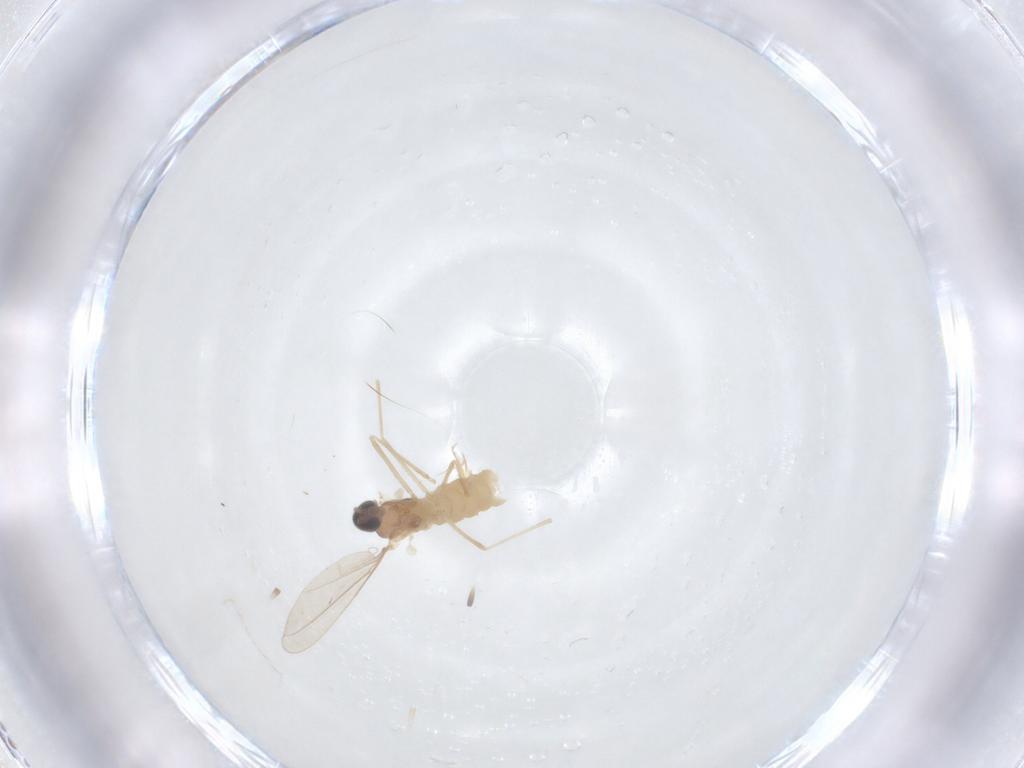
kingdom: Animalia
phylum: Arthropoda
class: Insecta
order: Diptera
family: Cecidomyiidae
